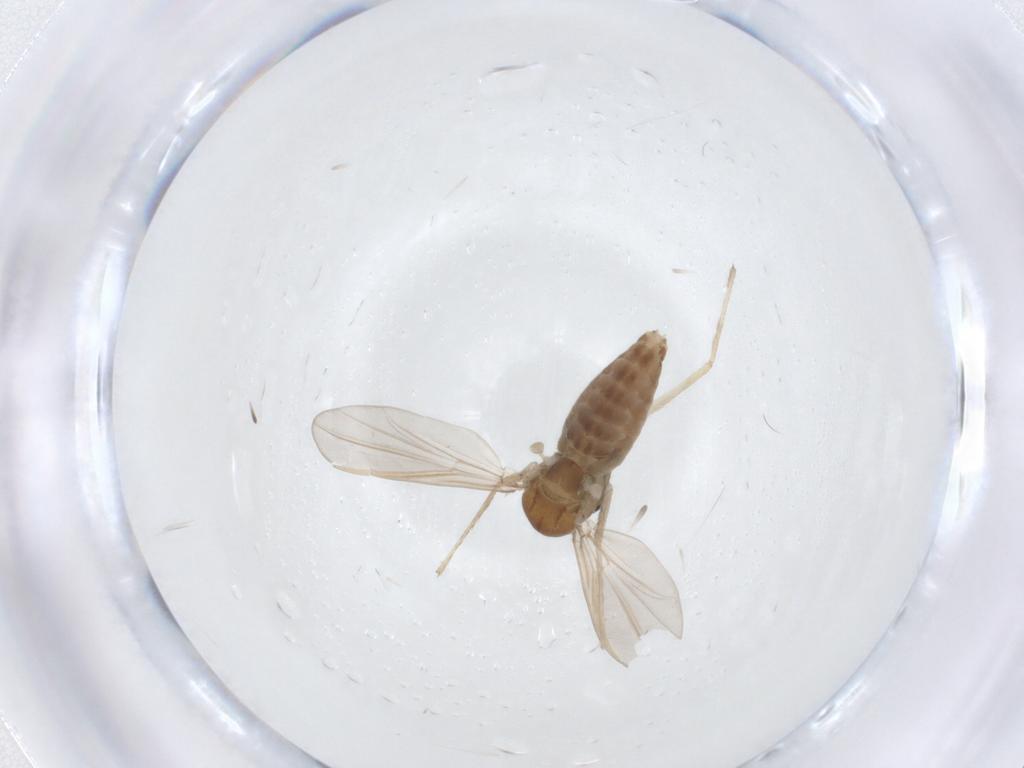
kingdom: Animalia
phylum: Arthropoda
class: Insecta
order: Diptera
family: Chironomidae
